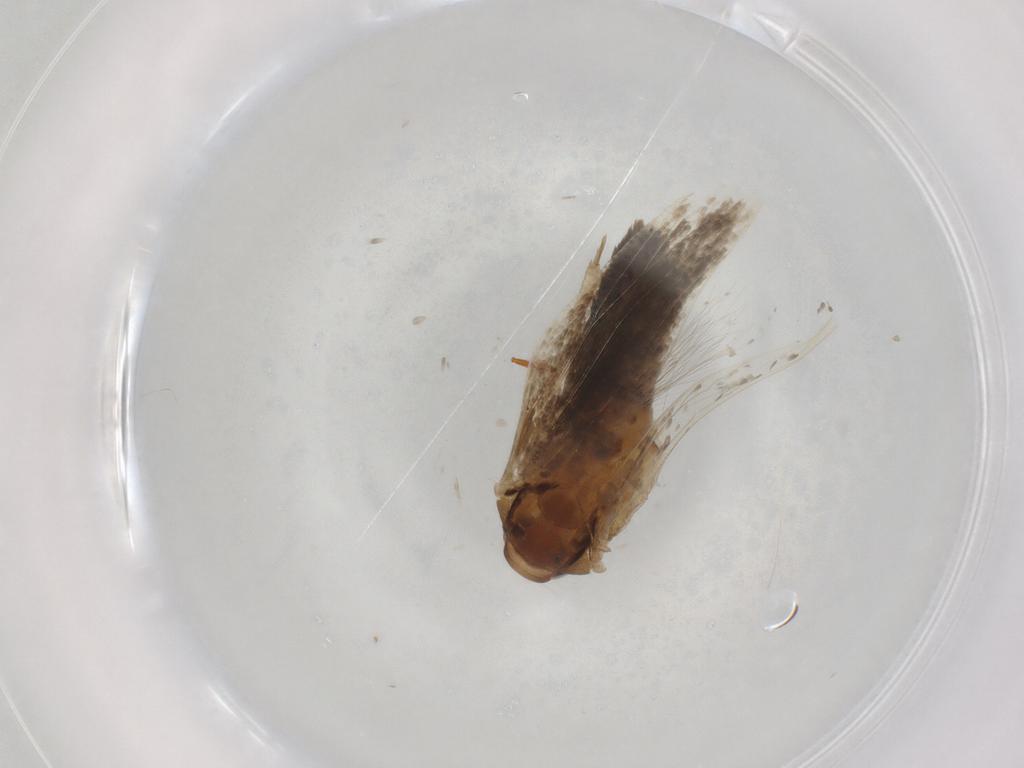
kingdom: Animalia
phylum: Arthropoda
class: Insecta
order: Lepidoptera
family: Cosmopterigidae
